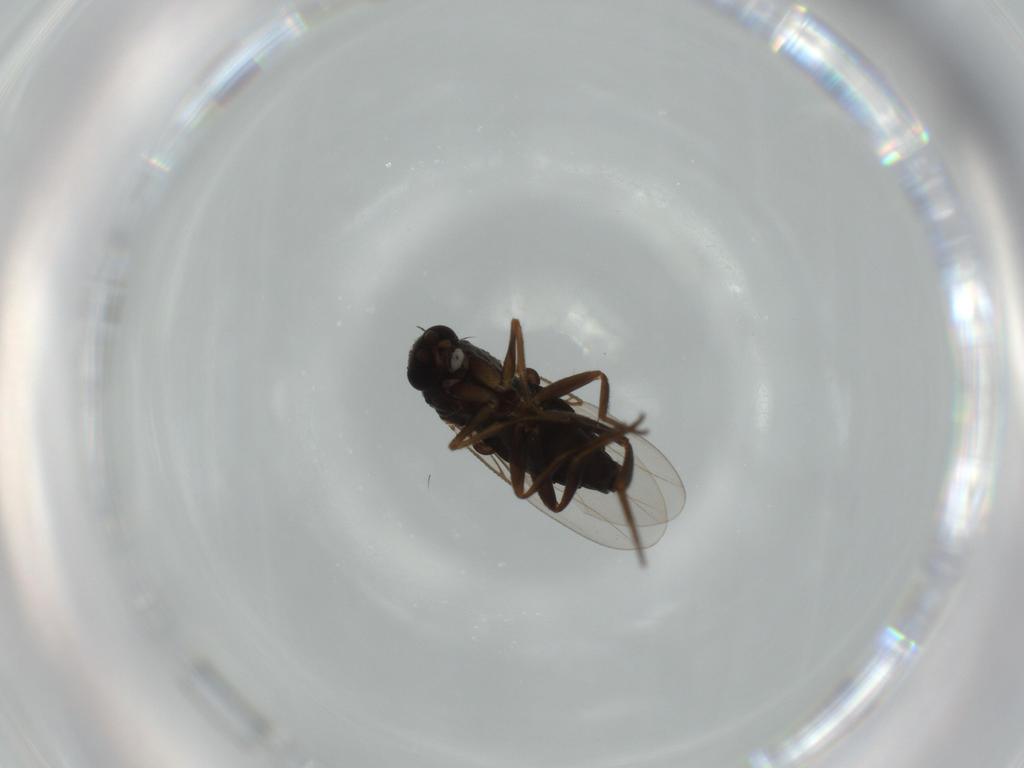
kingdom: Animalia
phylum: Arthropoda
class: Insecta
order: Diptera
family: Phoridae
